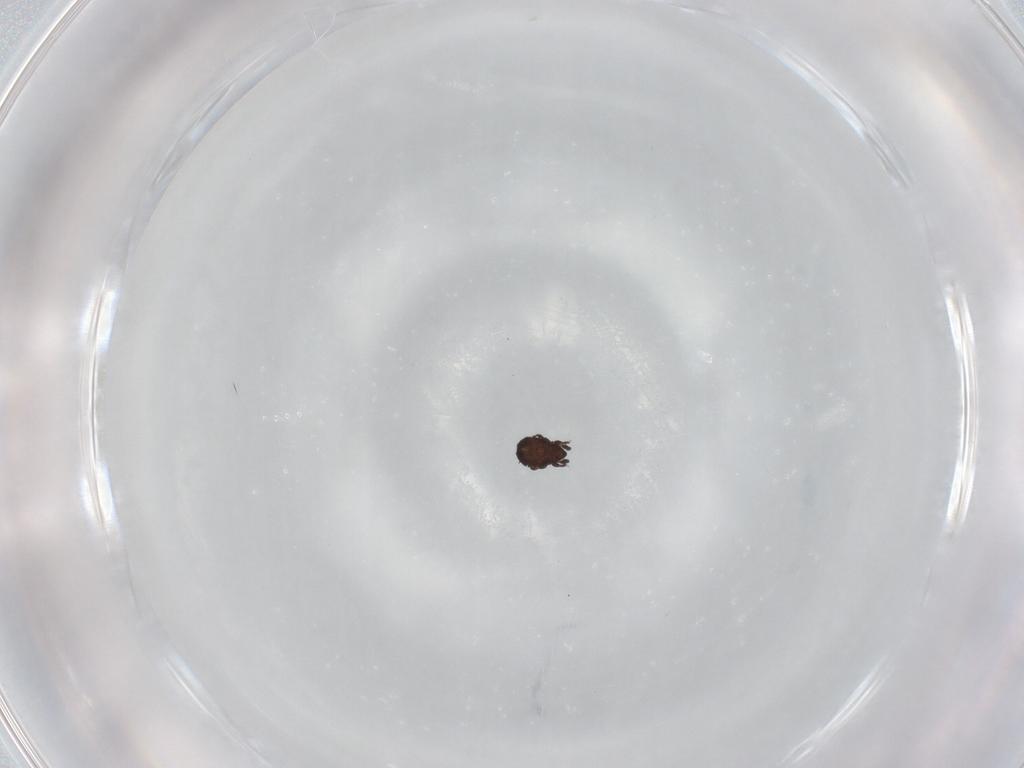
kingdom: Animalia
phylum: Arthropoda
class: Arachnida
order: Sarcoptiformes
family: Cymbaeremaeidae
